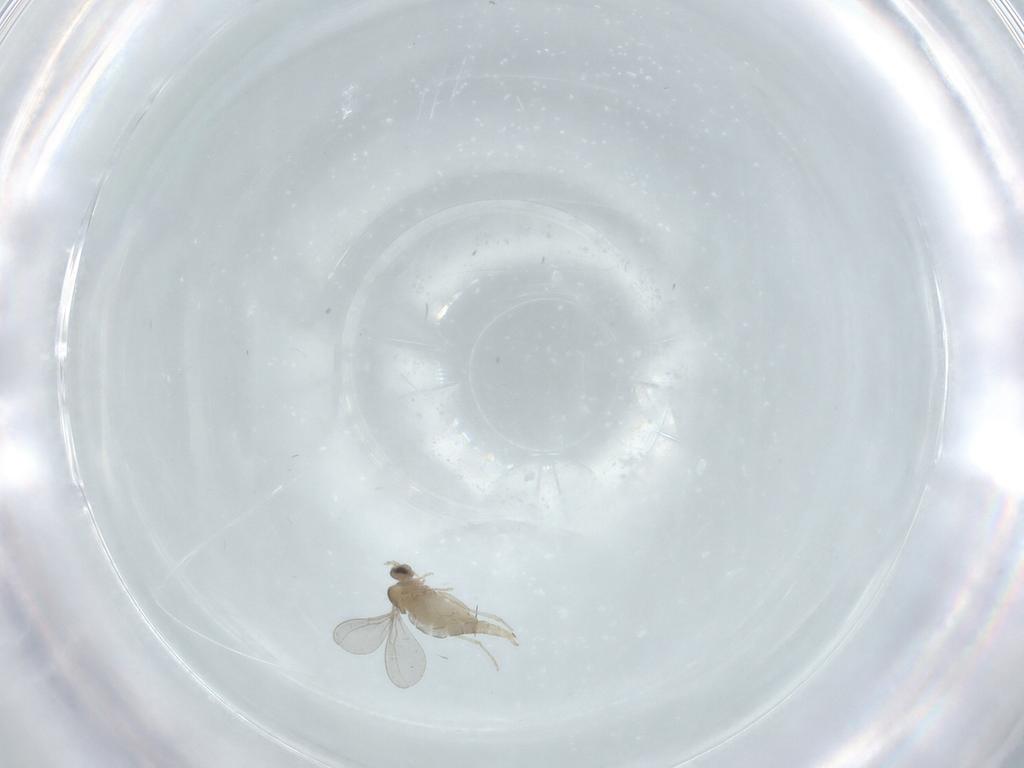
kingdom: Animalia
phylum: Arthropoda
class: Insecta
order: Diptera
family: Cecidomyiidae
